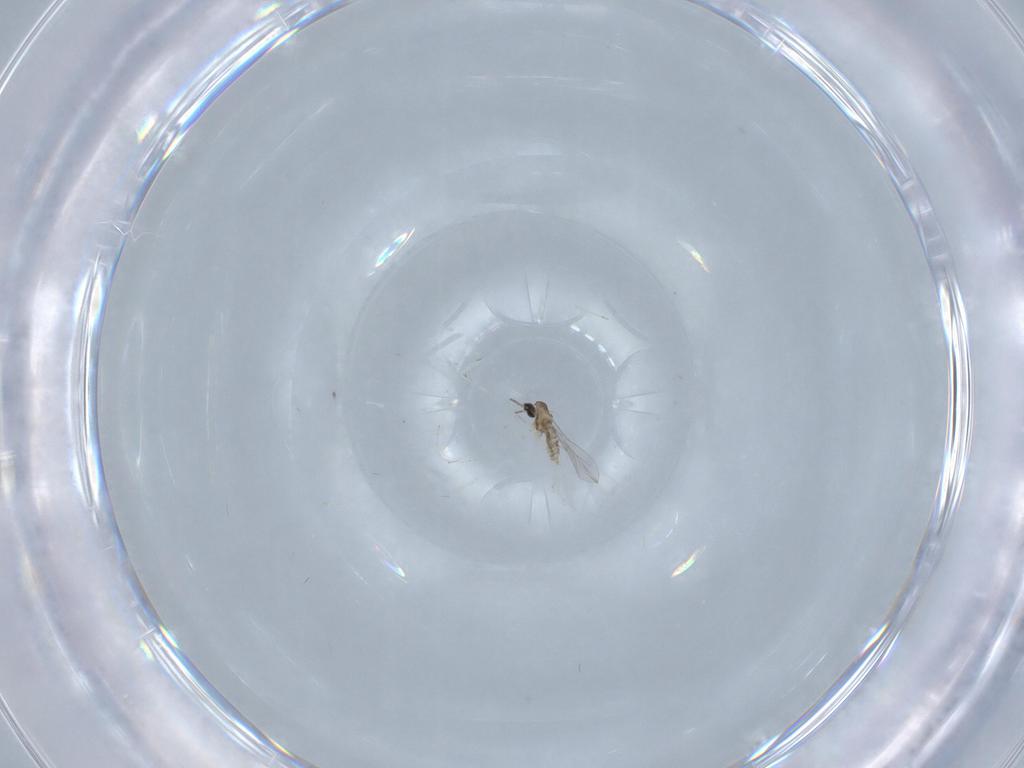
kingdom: Animalia
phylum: Arthropoda
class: Insecta
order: Diptera
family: Cecidomyiidae
